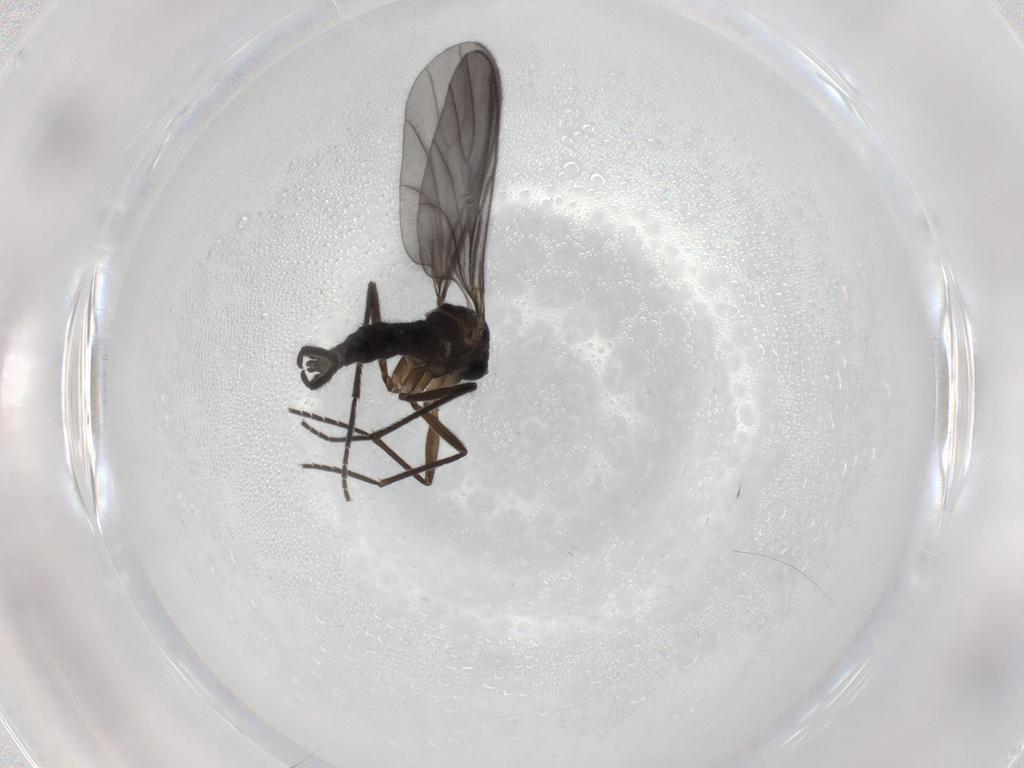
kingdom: Animalia
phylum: Arthropoda
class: Insecta
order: Diptera
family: Sciaridae
